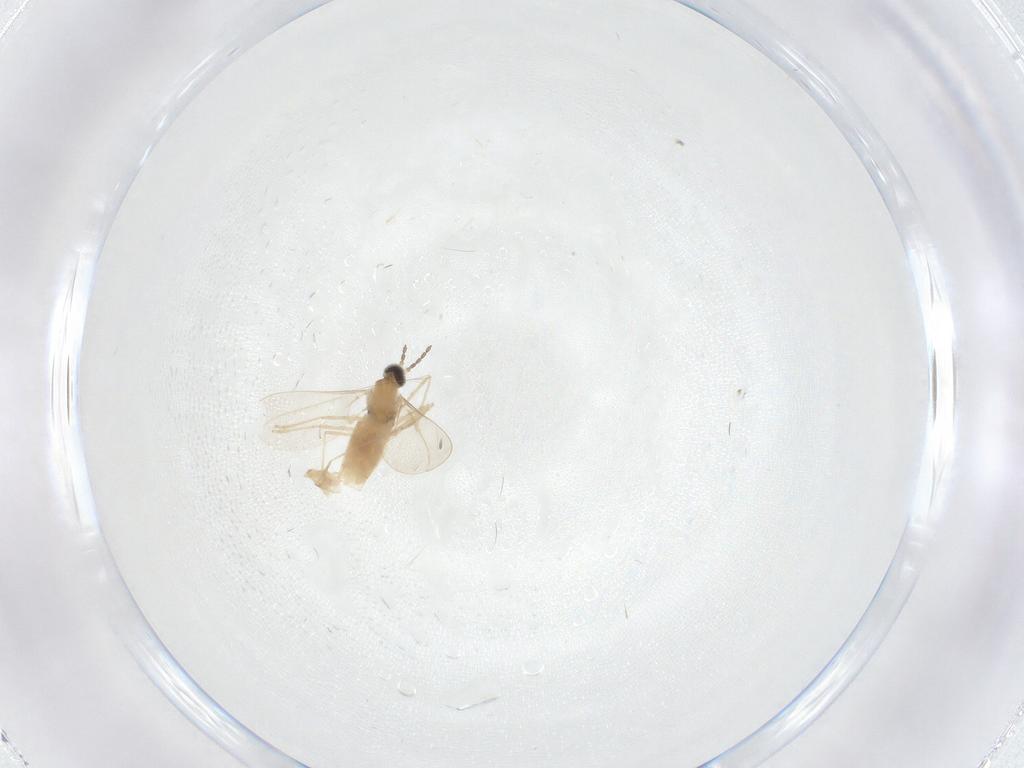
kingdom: Animalia
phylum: Arthropoda
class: Insecta
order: Diptera
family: Cecidomyiidae
